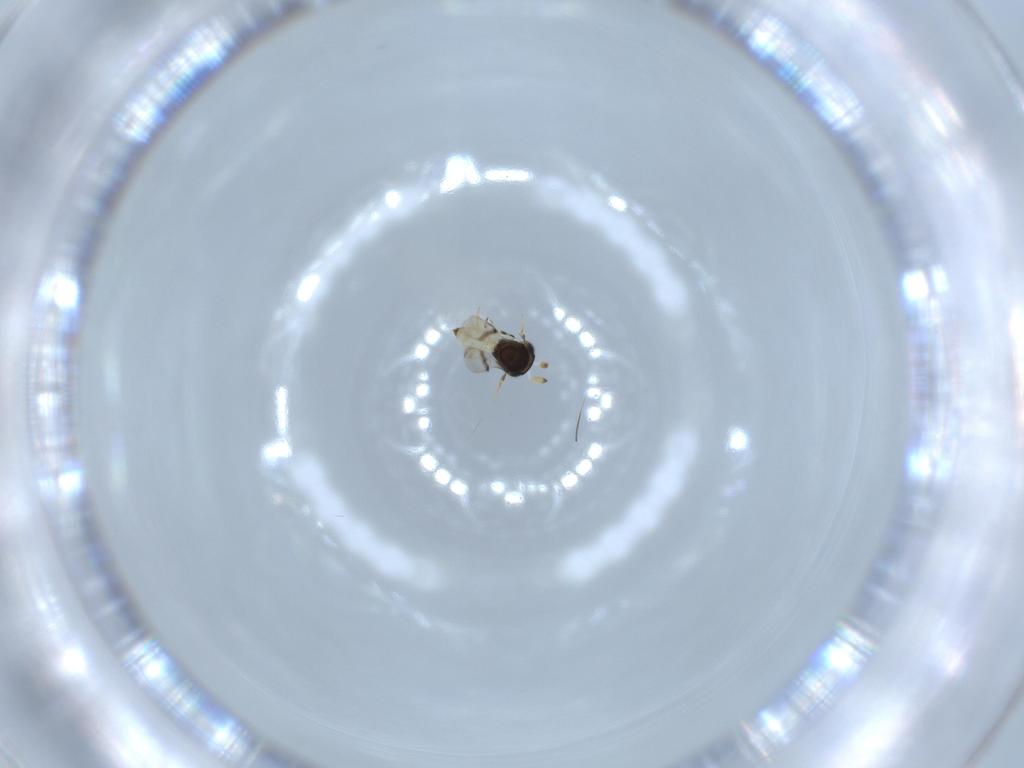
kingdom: Animalia
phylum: Arthropoda
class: Insecta
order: Hymenoptera
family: Scelionidae
